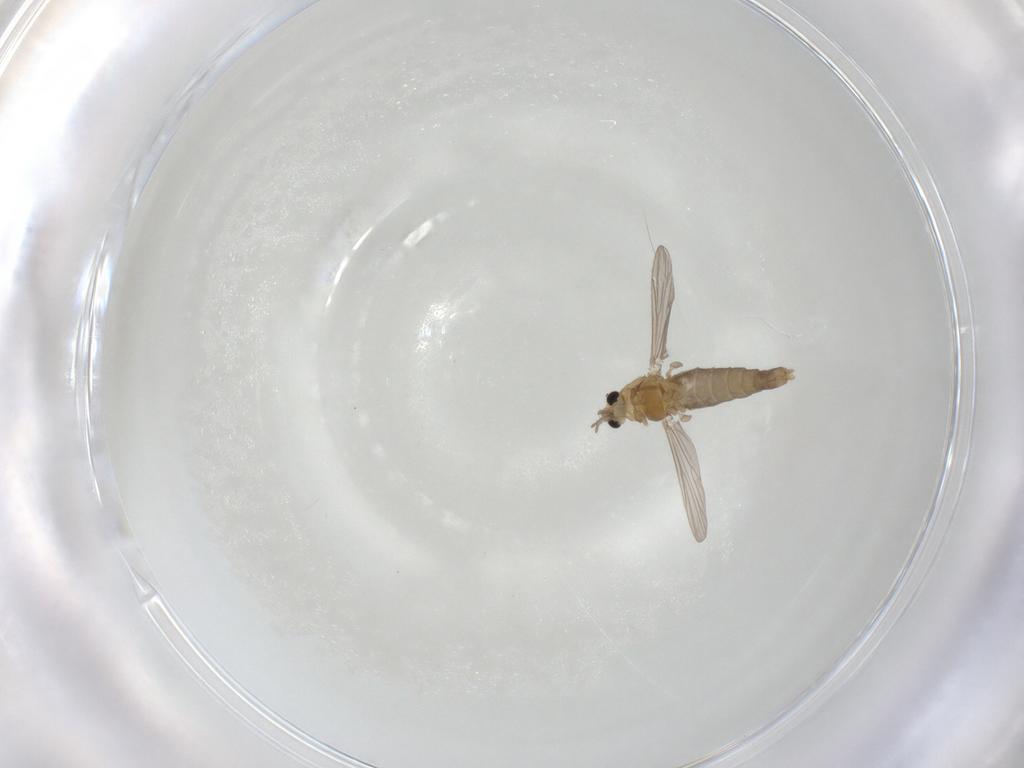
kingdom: Animalia
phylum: Arthropoda
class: Insecta
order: Diptera
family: Chironomidae
